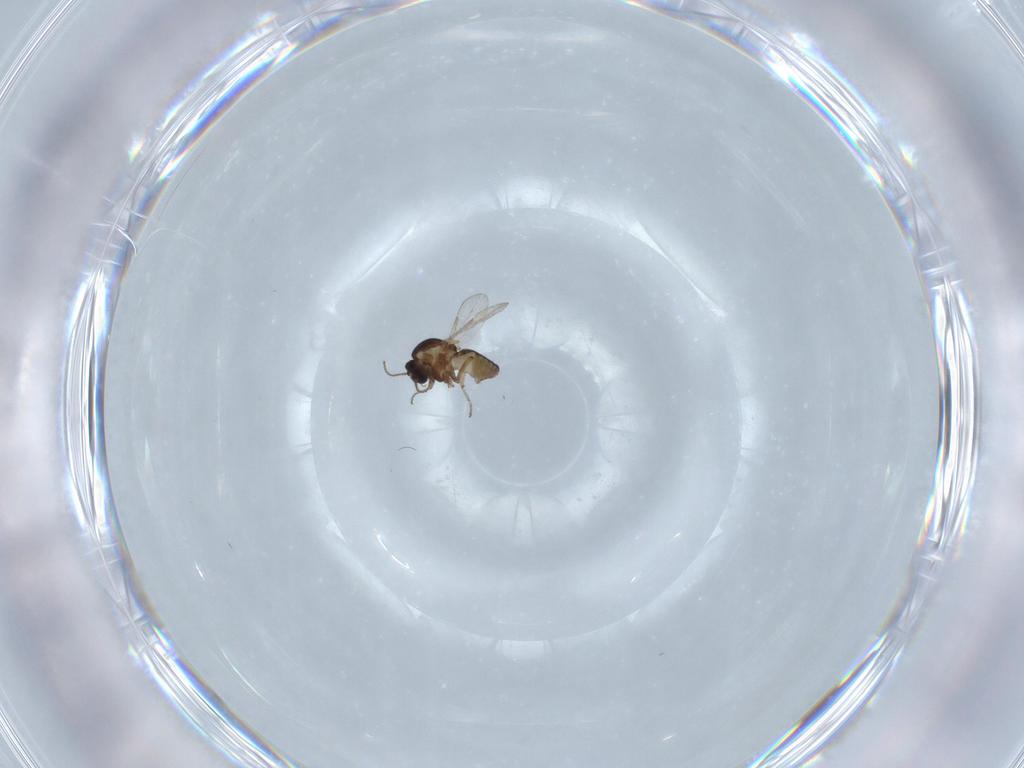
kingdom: Animalia
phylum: Arthropoda
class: Insecta
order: Diptera
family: Ceratopogonidae
